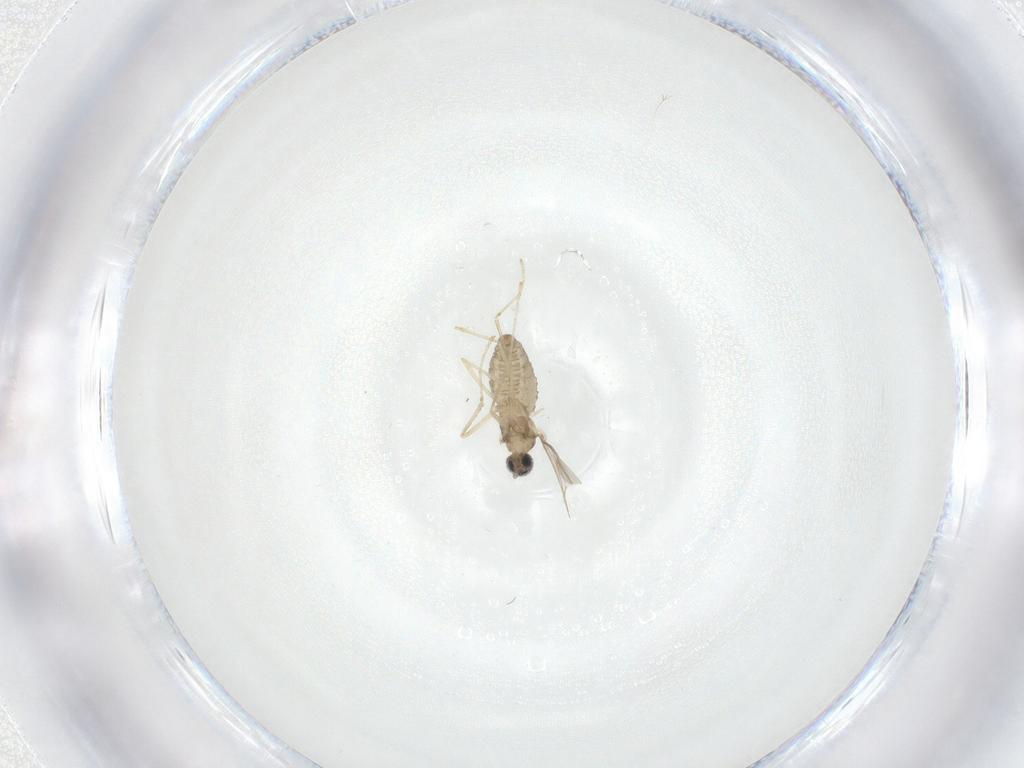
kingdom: Animalia
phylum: Arthropoda
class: Insecta
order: Diptera
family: Cecidomyiidae
